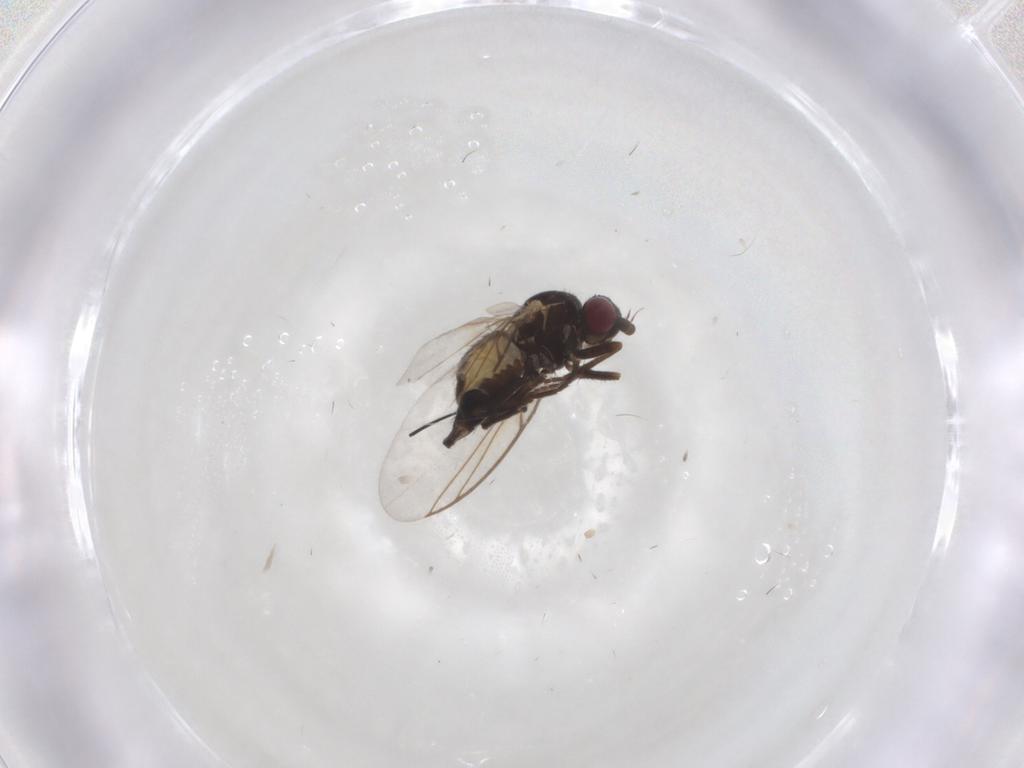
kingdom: Animalia
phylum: Arthropoda
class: Insecta
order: Diptera
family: Agromyzidae
